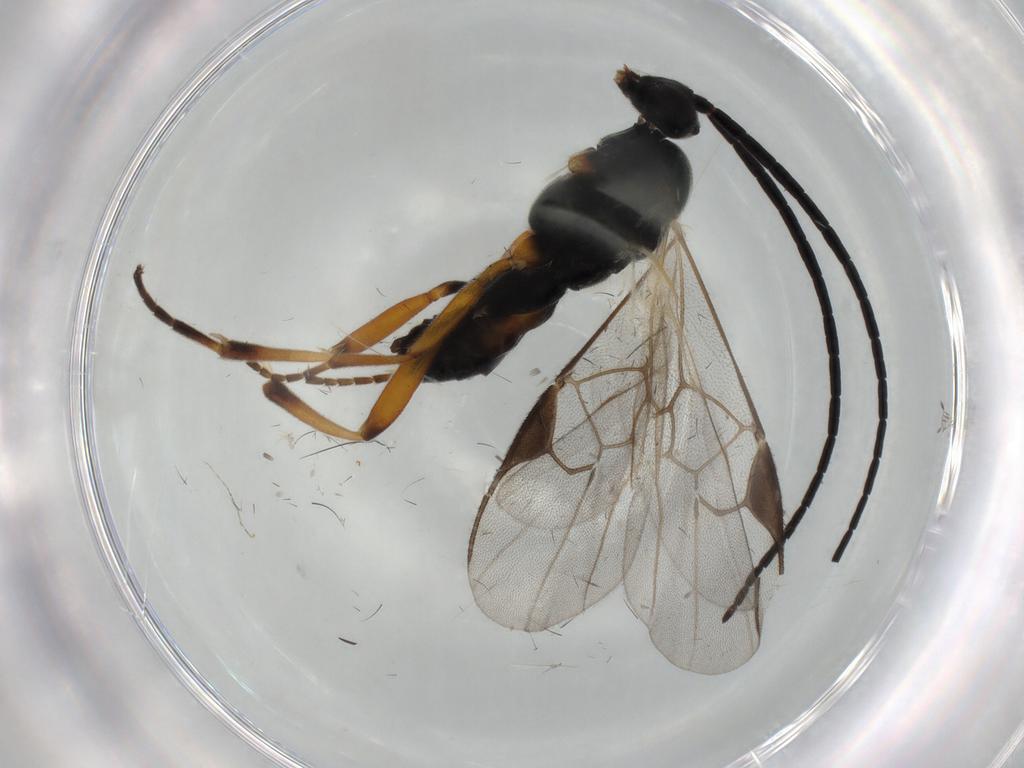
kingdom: Animalia
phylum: Arthropoda
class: Insecta
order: Hymenoptera
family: Braconidae
